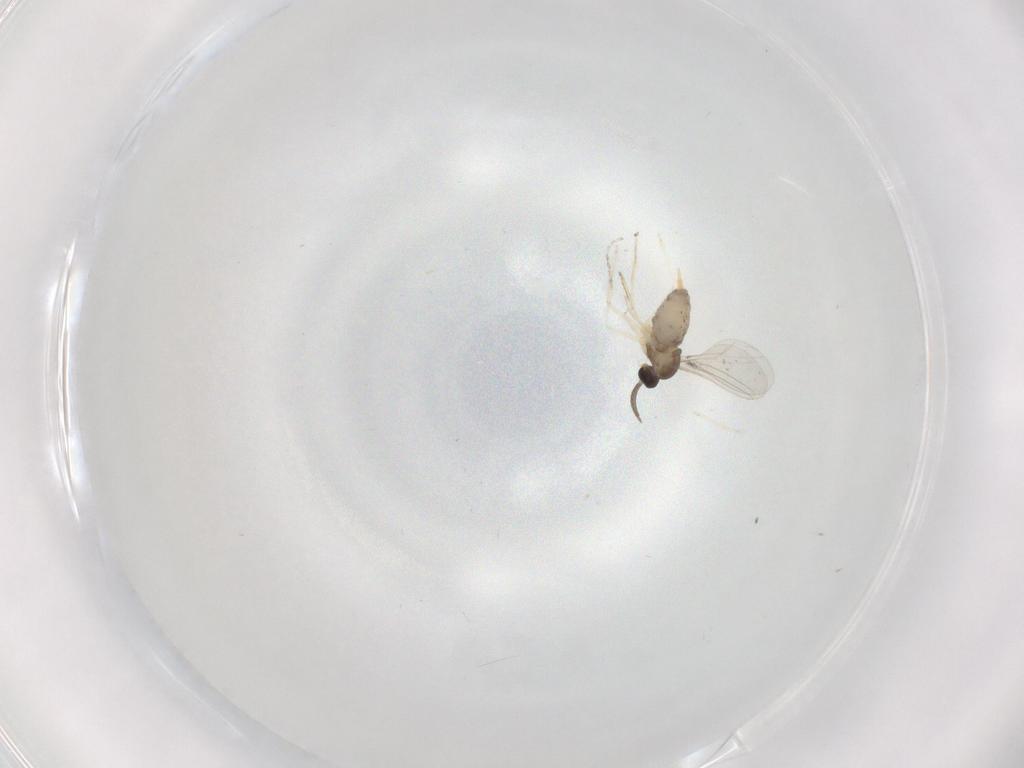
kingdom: Animalia
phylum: Arthropoda
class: Insecta
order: Diptera
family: Cecidomyiidae
